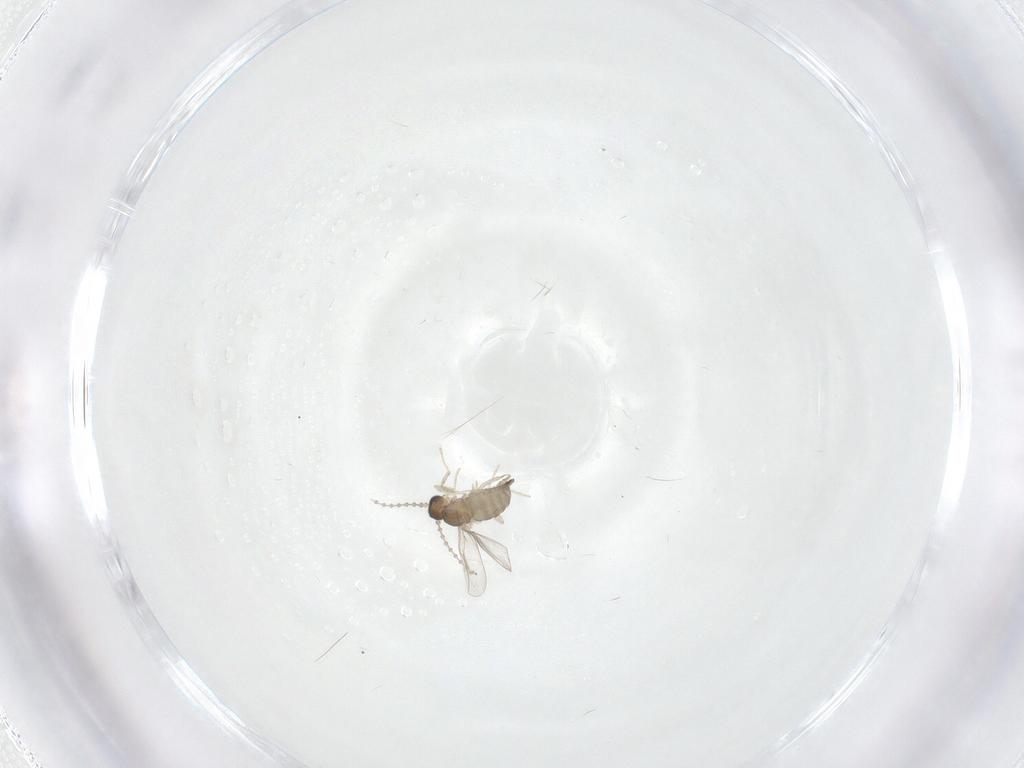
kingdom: Animalia
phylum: Arthropoda
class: Insecta
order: Diptera
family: Cecidomyiidae
